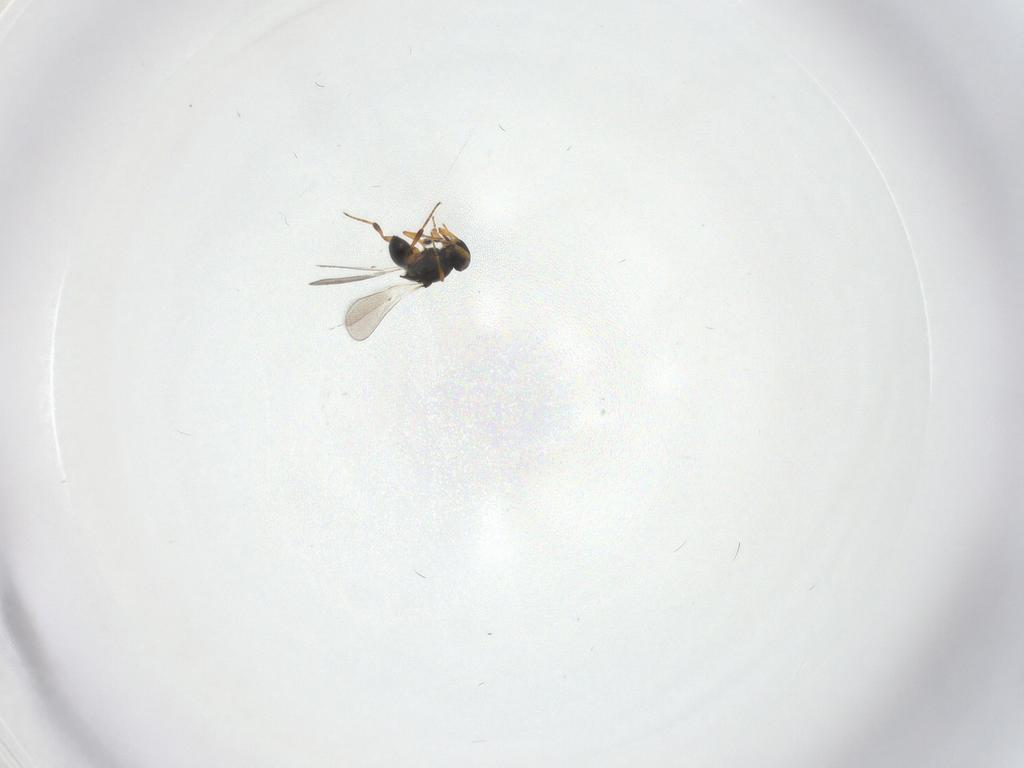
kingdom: Animalia
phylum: Arthropoda
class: Insecta
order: Hymenoptera
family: Platygastridae
